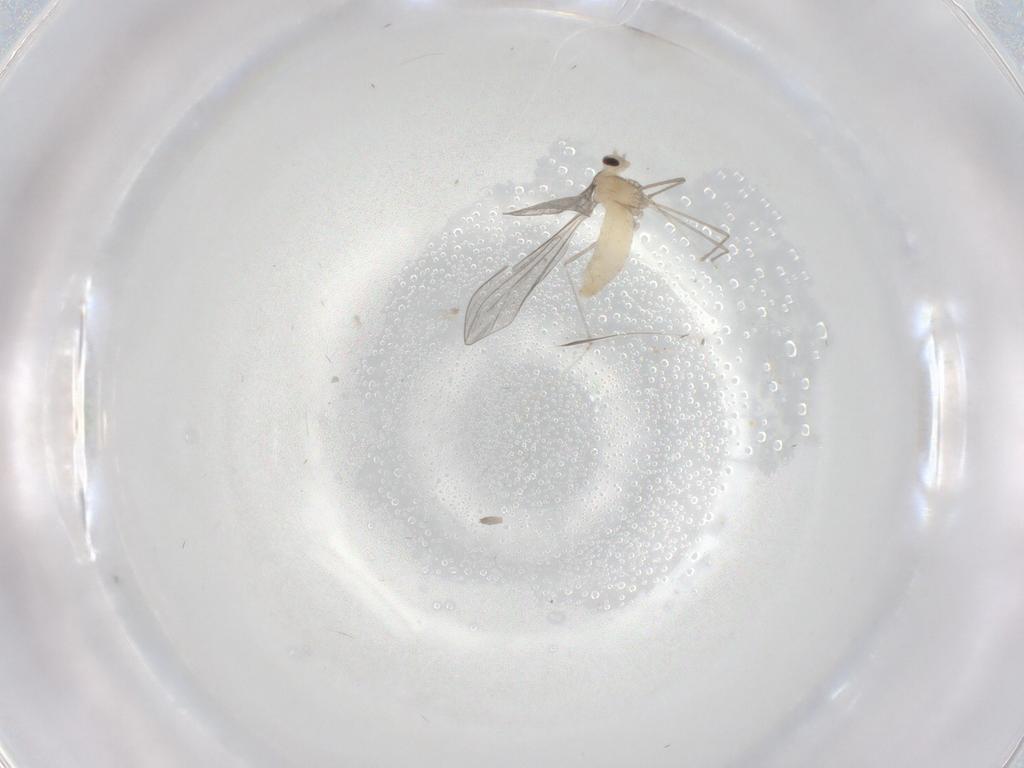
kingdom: Animalia
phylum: Arthropoda
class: Insecta
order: Diptera
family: Cecidomyiidae
